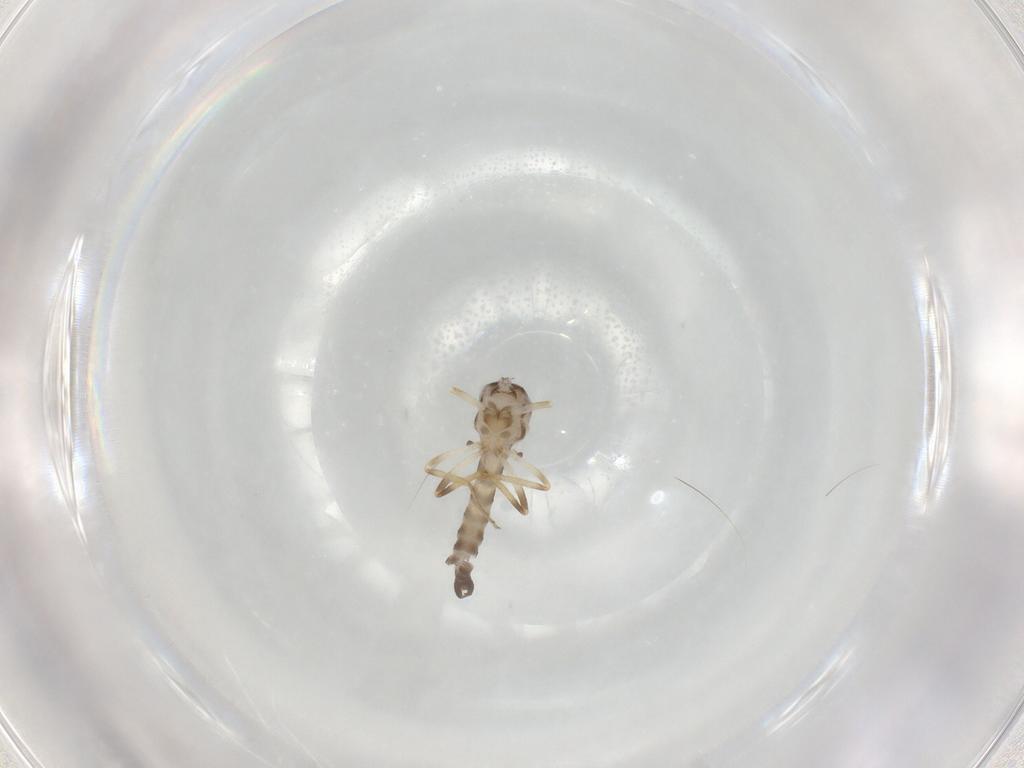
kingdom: Animalia
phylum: Arthropoda
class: Insecta
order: Diptera
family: Ceratopogonidae
